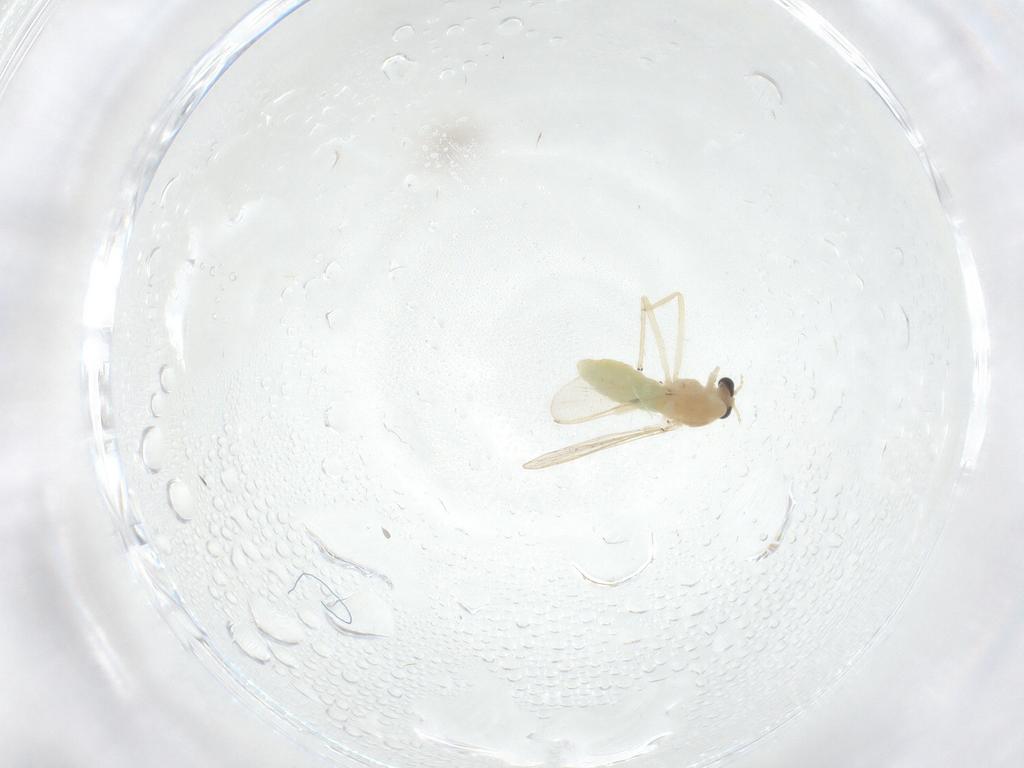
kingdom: Animalia
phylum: Arthropoda
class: Insecta
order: Diptera
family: Chironomidae
